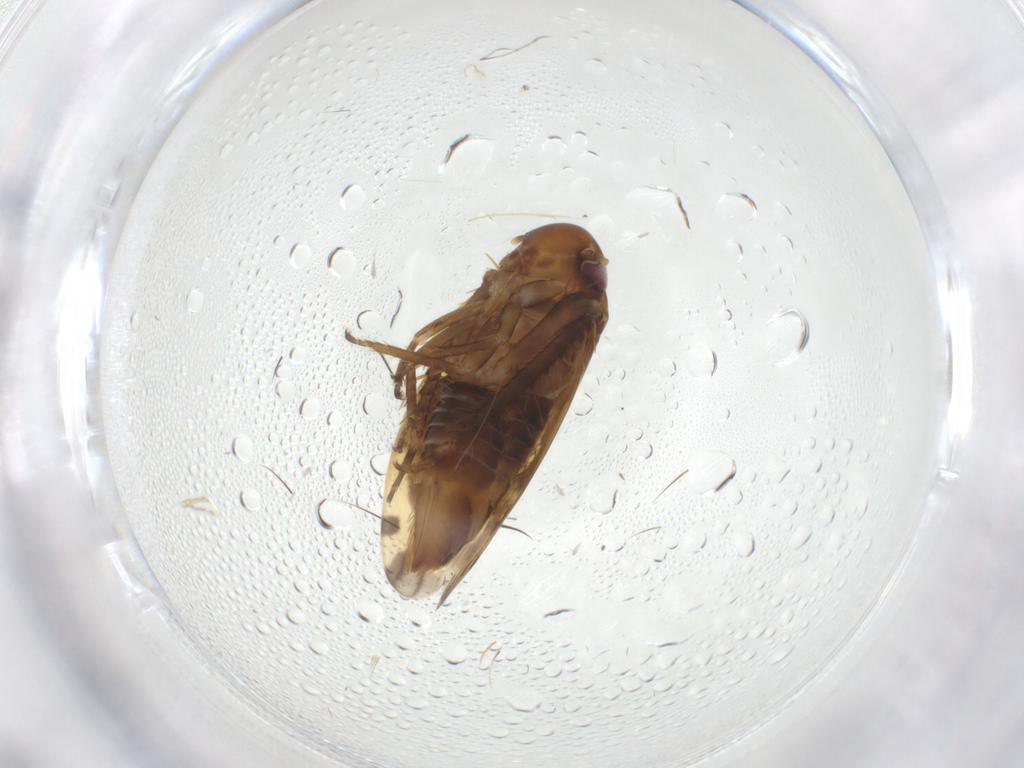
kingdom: Animalia
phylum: Arthropoda
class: Insecta
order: Hemiptera
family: Cicadellidae
